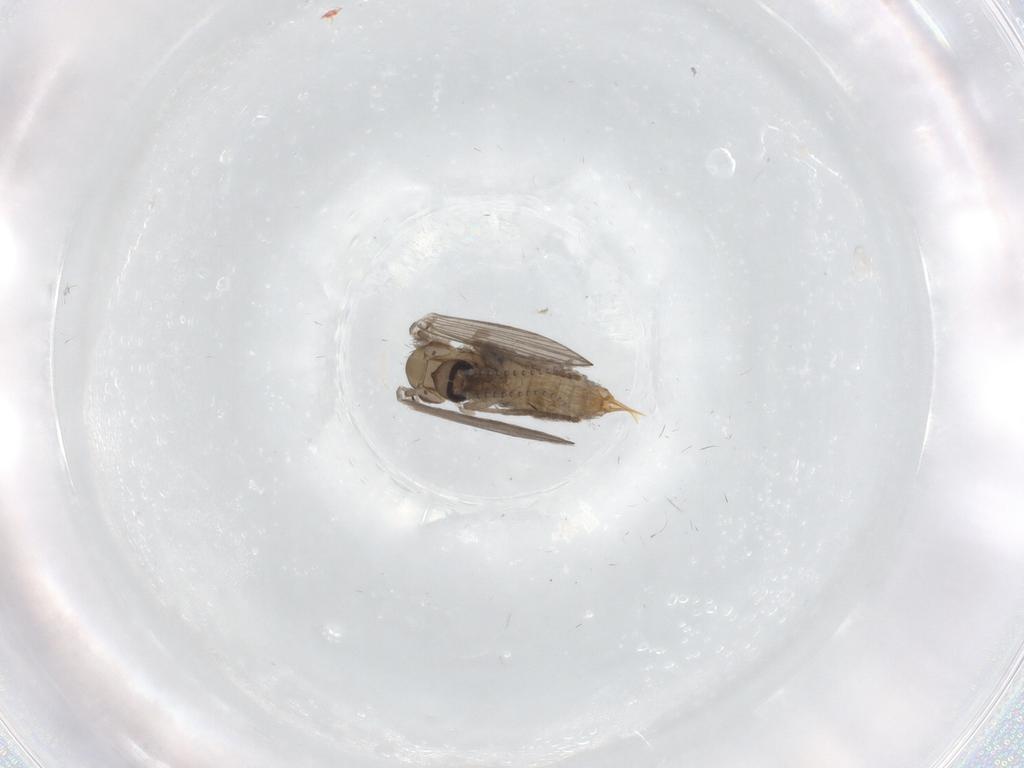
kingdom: Animalia
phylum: Arthropoda
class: Insecta
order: Diptera
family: Psychodidae
